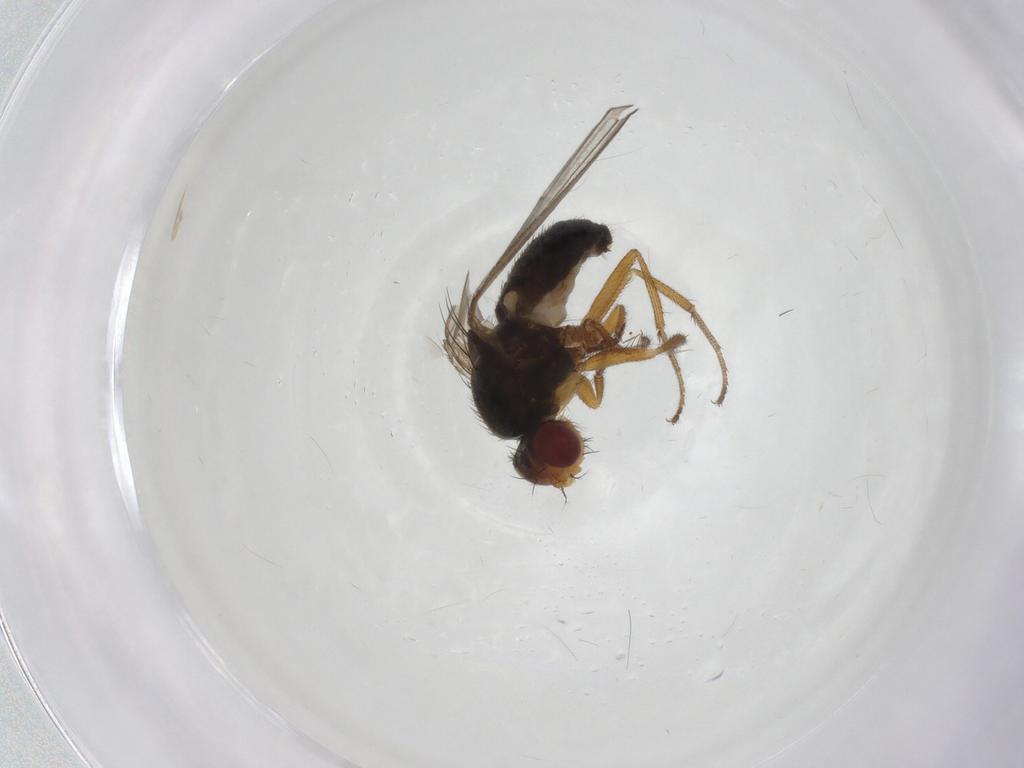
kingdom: Animalia
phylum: Arthropoda
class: Insecta
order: Diptera
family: Drosophilidae
